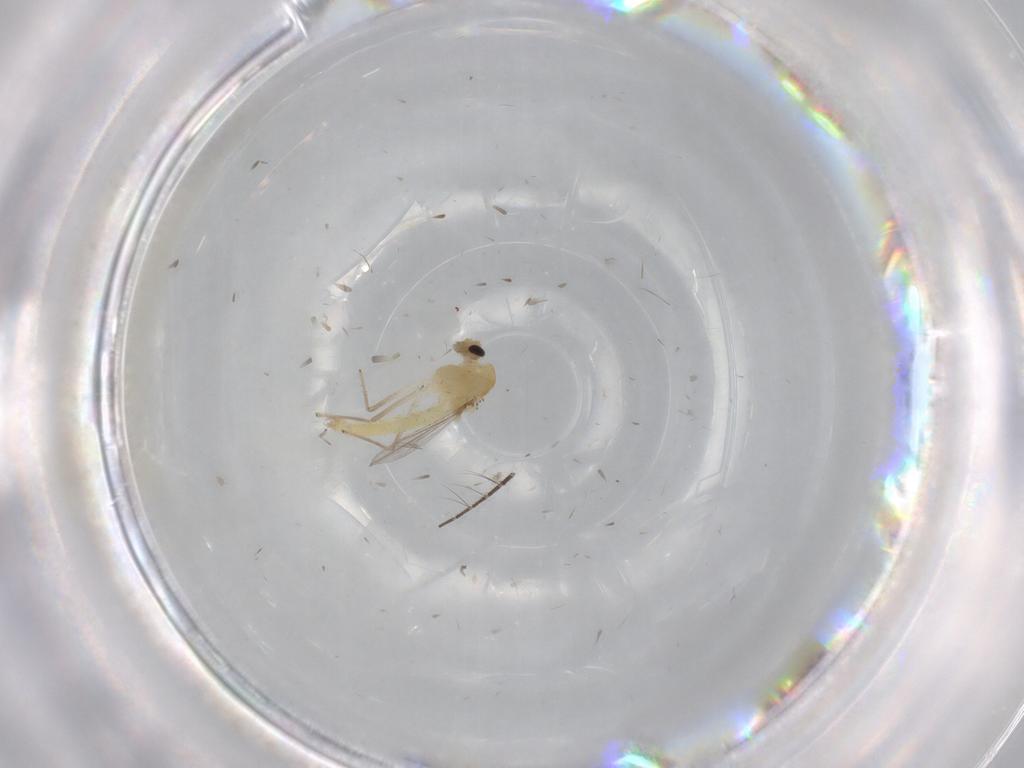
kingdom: Animalia
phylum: Arthropoda
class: Insecta
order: Diptera
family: Chironomidae
